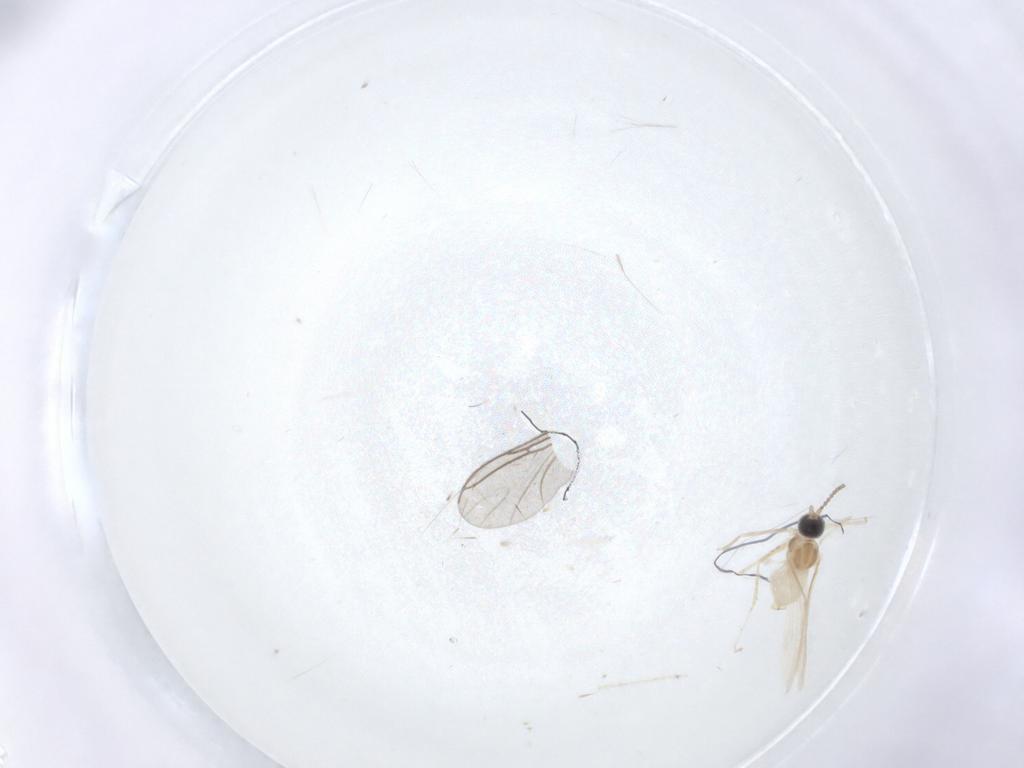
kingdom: Animalia
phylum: Arthropoda
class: Insecta
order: Diptera
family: Cecidomyiidae
